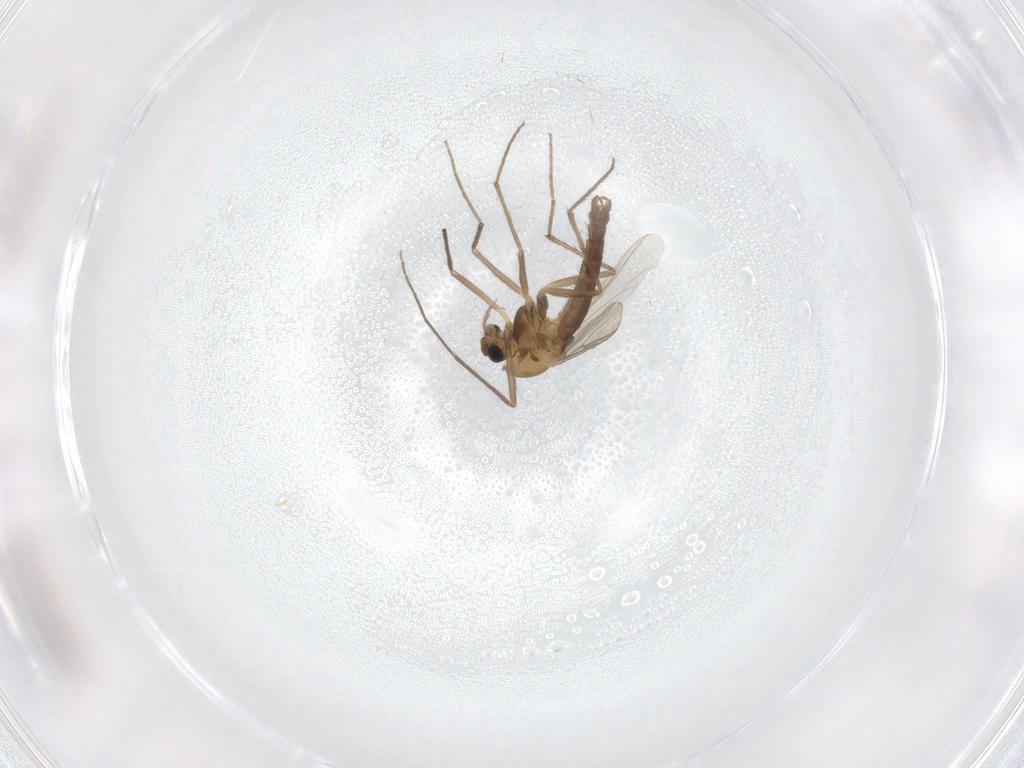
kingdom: Animalia
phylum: Arthropoda
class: Insecta
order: Diptera
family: Chironomidae
